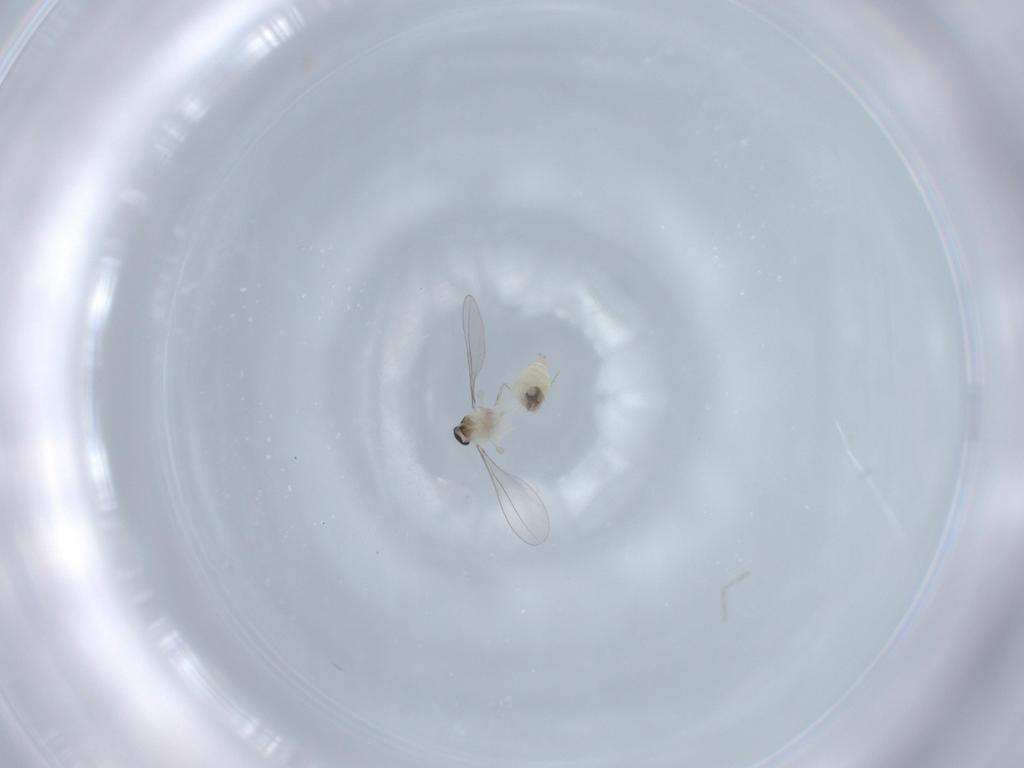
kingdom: Animalia
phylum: Arthropoda
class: Insecta
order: Diptera
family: Cecidomyiidae
